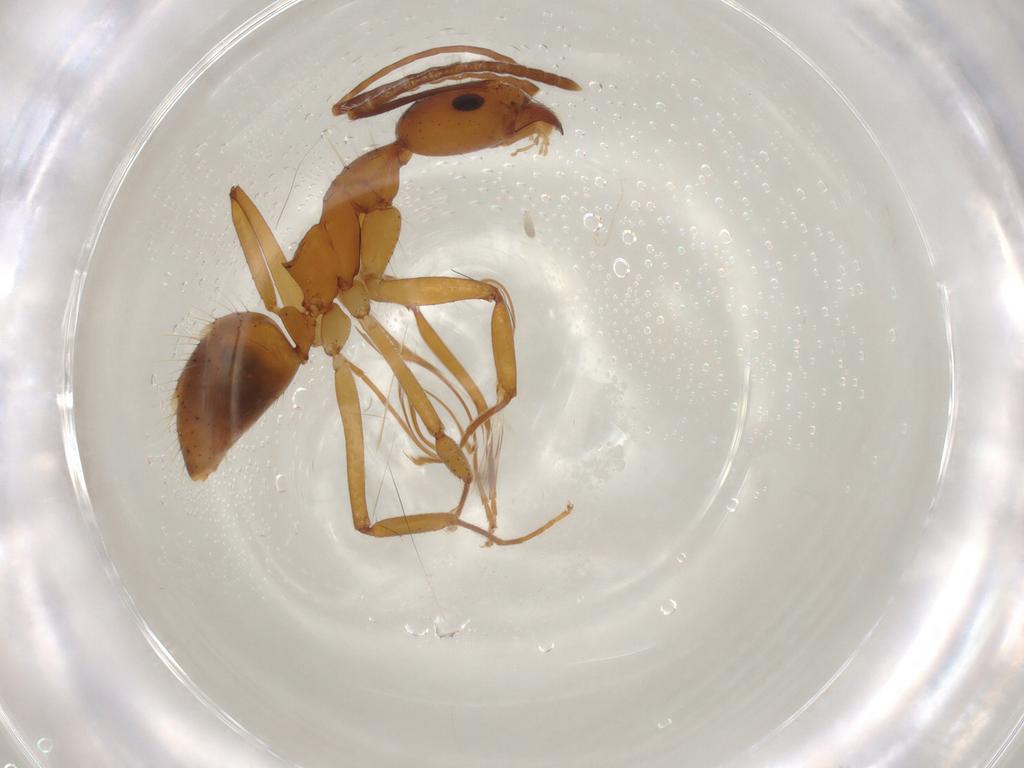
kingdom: Animalia
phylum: Arthropoda
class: Insecta
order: Hymenoptera
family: Formicidae
